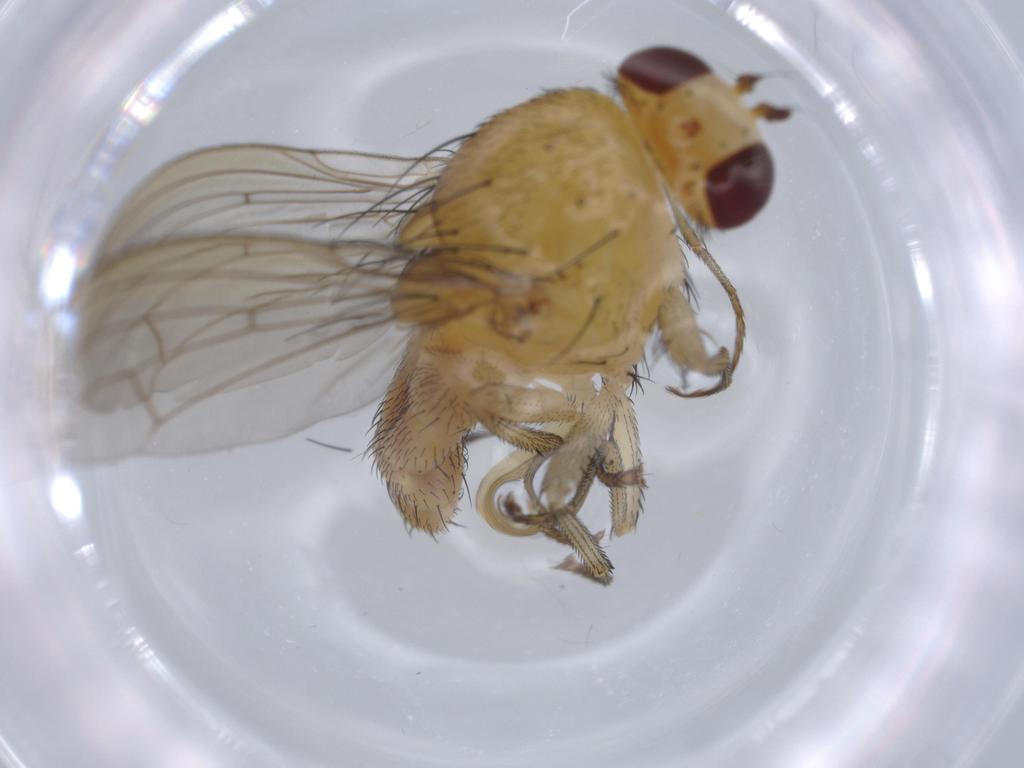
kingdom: Animalia
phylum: Arthropoda
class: Insecta
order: Diptera
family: Lauxaniidae
